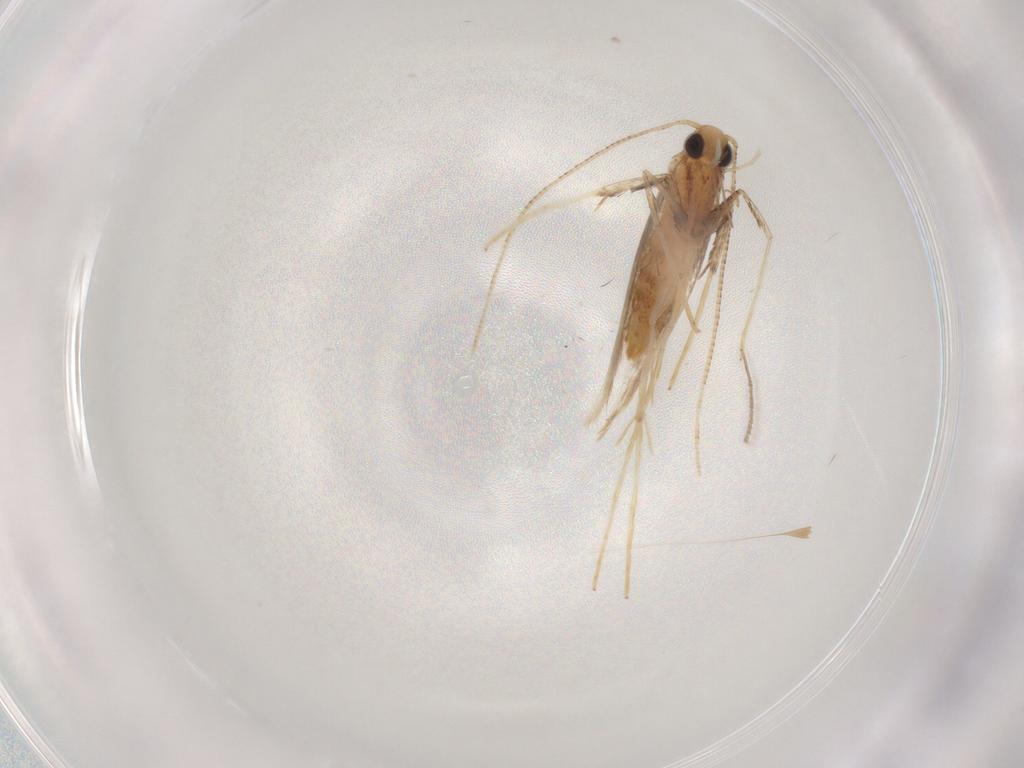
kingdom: Animalia
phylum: Arthropoda
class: Insecta
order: Lepidoptera
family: Gracillariidae
